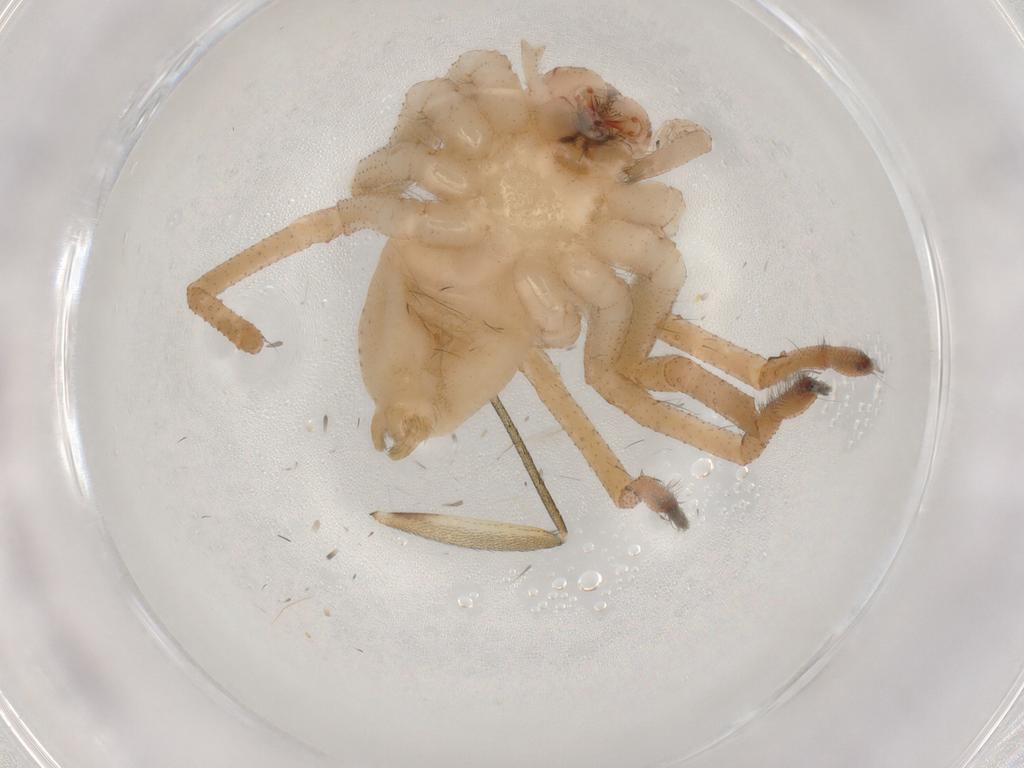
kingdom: Animalia
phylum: Arthropoda
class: Arachnida
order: Araneae
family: Sparassidae
